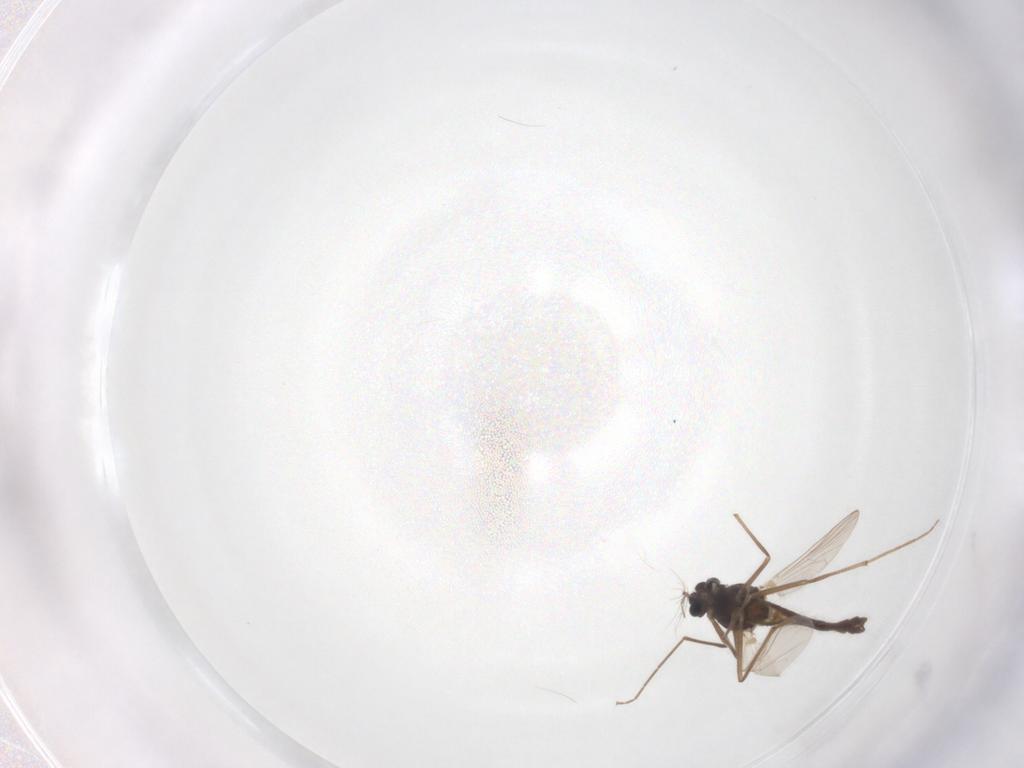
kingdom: Animalia
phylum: Arthropoda
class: Insecta
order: Diptera
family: Chironomidae
